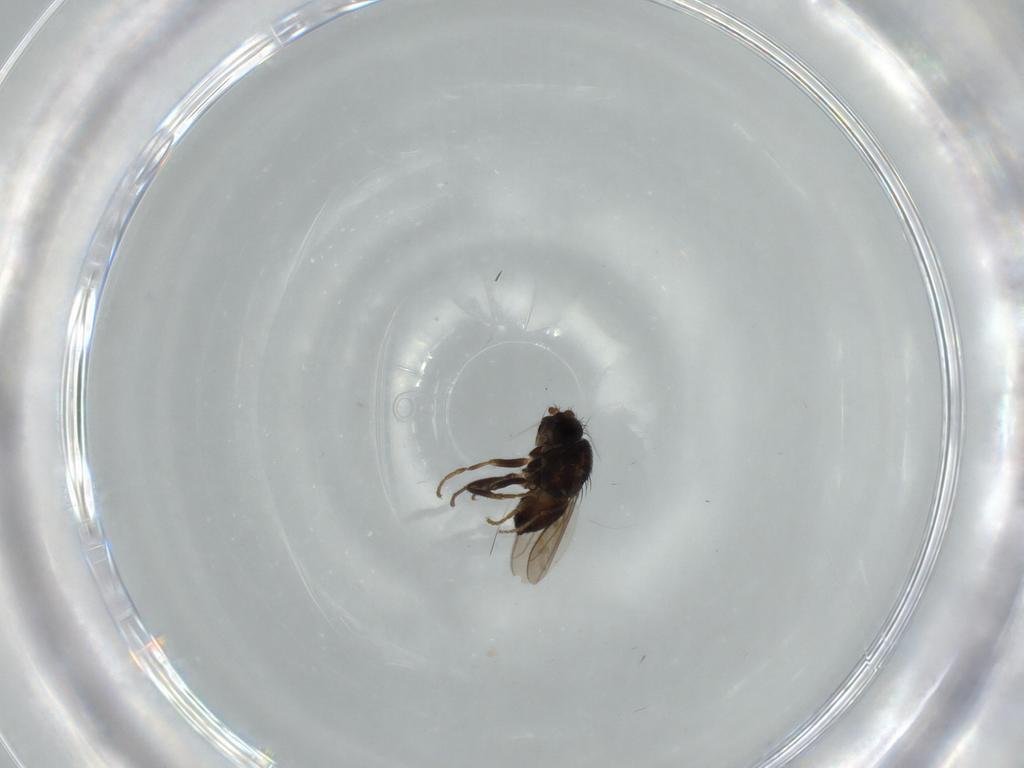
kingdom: Animalia
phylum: Arthropoda
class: Insecta
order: Diptera
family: Sphaeroceridae
